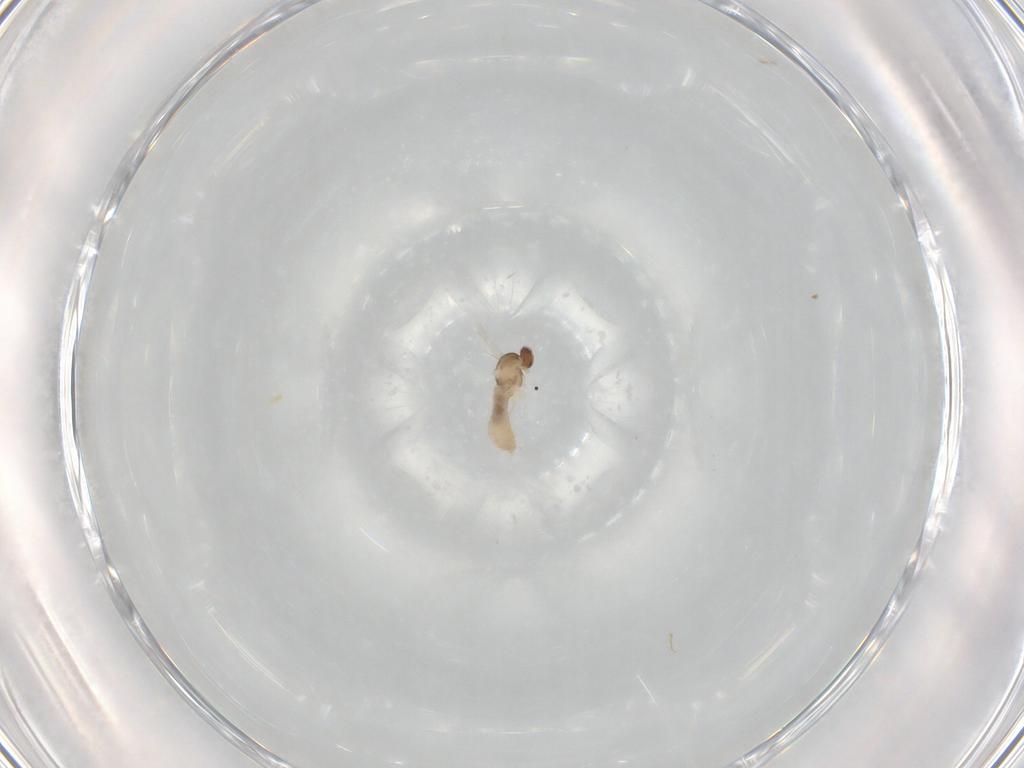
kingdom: Animalia
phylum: Arthropoda
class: Insecta
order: Diptera
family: Cecidomyiidae
